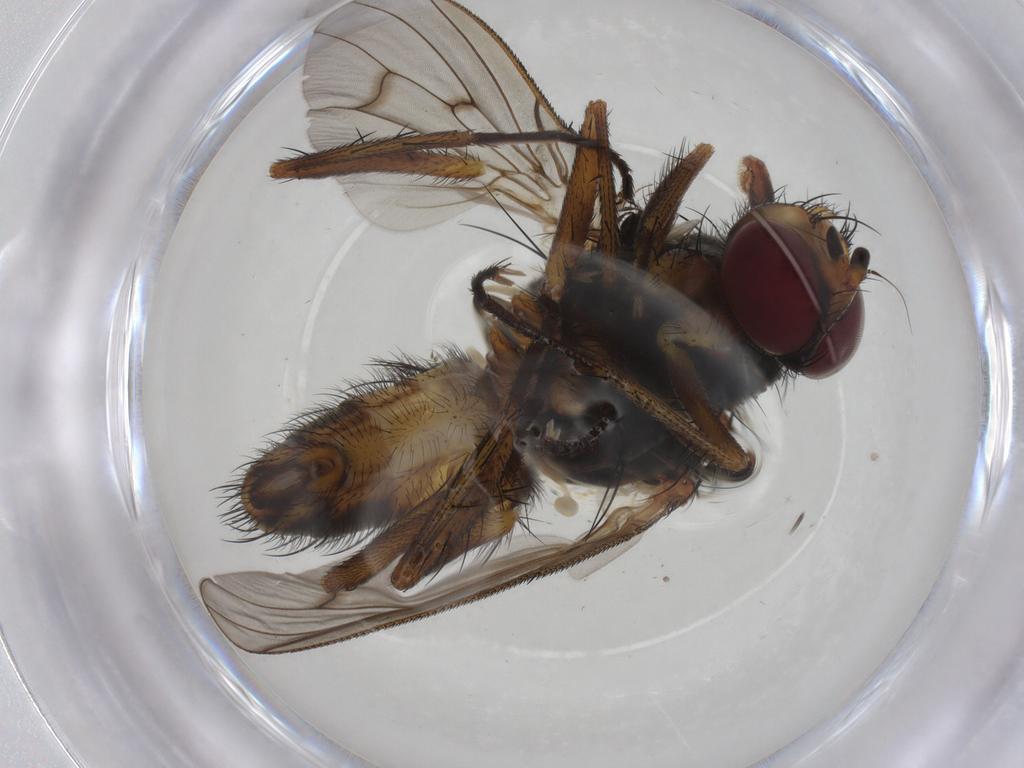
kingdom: Animalia
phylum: Arthropoda
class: Insecta
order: Diptera
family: Anthomyiidae
